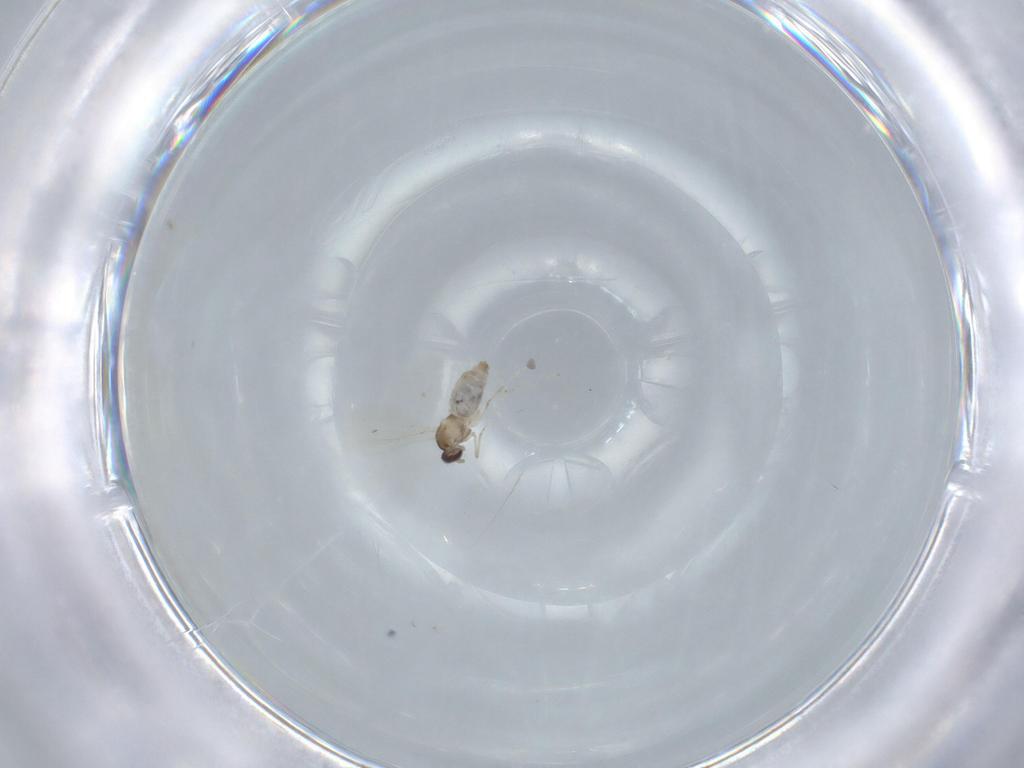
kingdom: Animalia
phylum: Arthropoda
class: Insecta
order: Diptera
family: Cecidomyiidae
